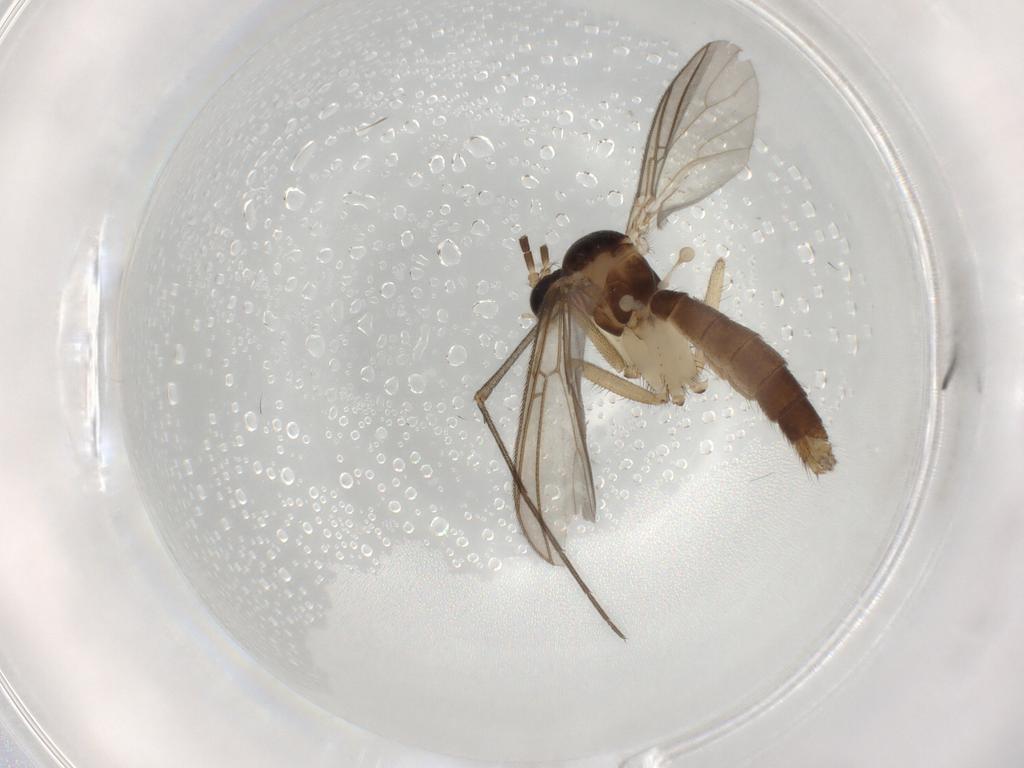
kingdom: Animalia
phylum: Arthropoda
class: Insecta
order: Diptera
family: Mycetophilidae
